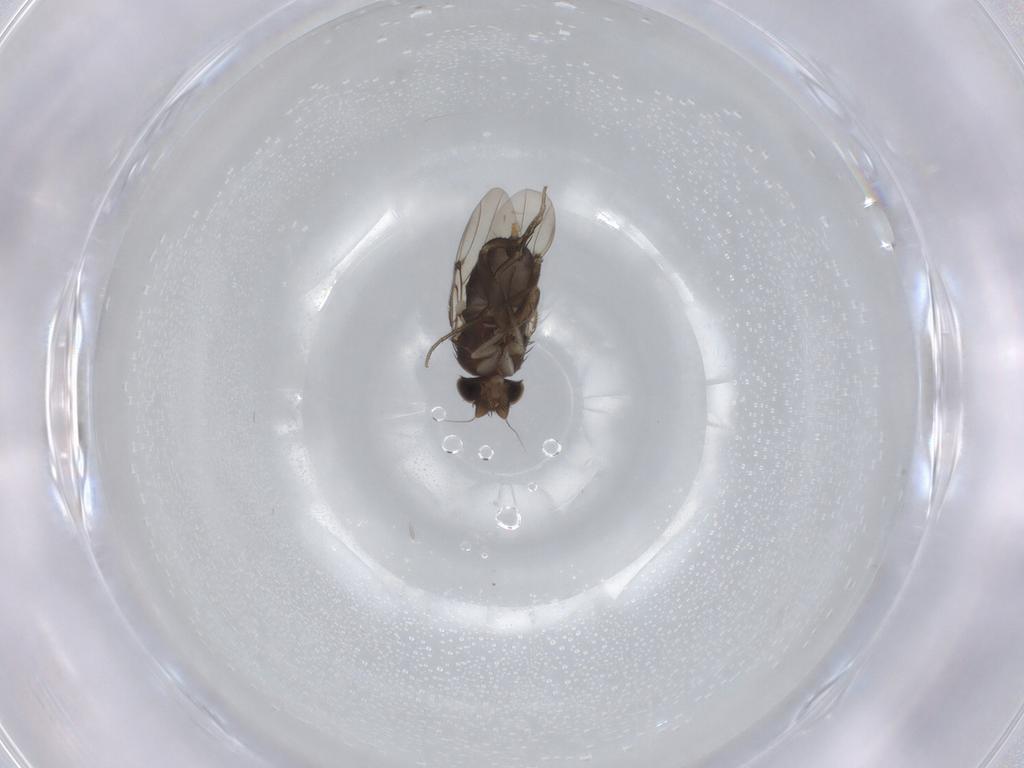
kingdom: Animalia
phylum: Arthropoda
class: Insecta
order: Diptera
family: Phoridae
